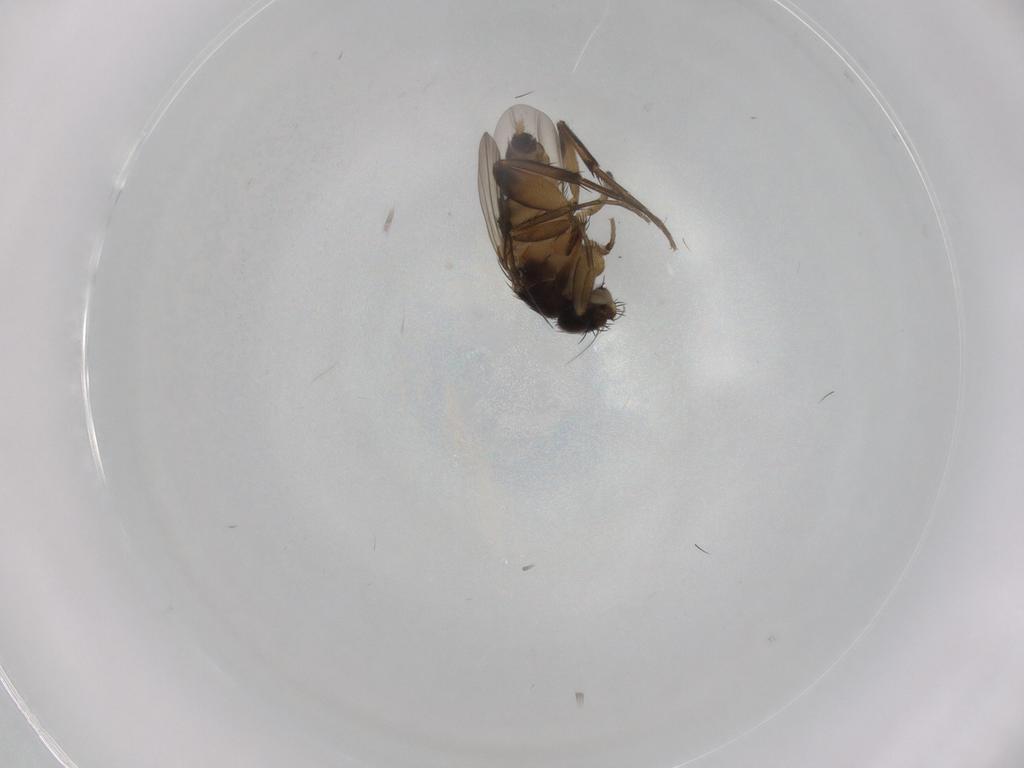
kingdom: Animalia
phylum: Arthropoda
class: Insecta
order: Diptera
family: Phoridae
